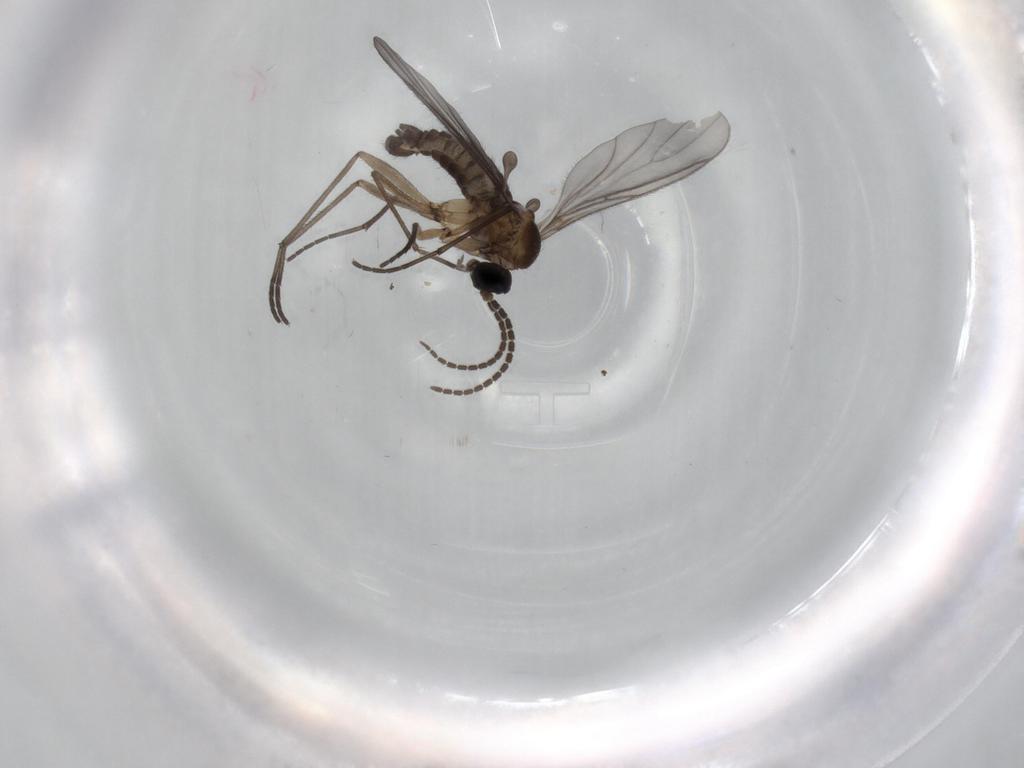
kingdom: Animalia
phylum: Arthropoda
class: Insecta
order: Diptera
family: Sciaridae
